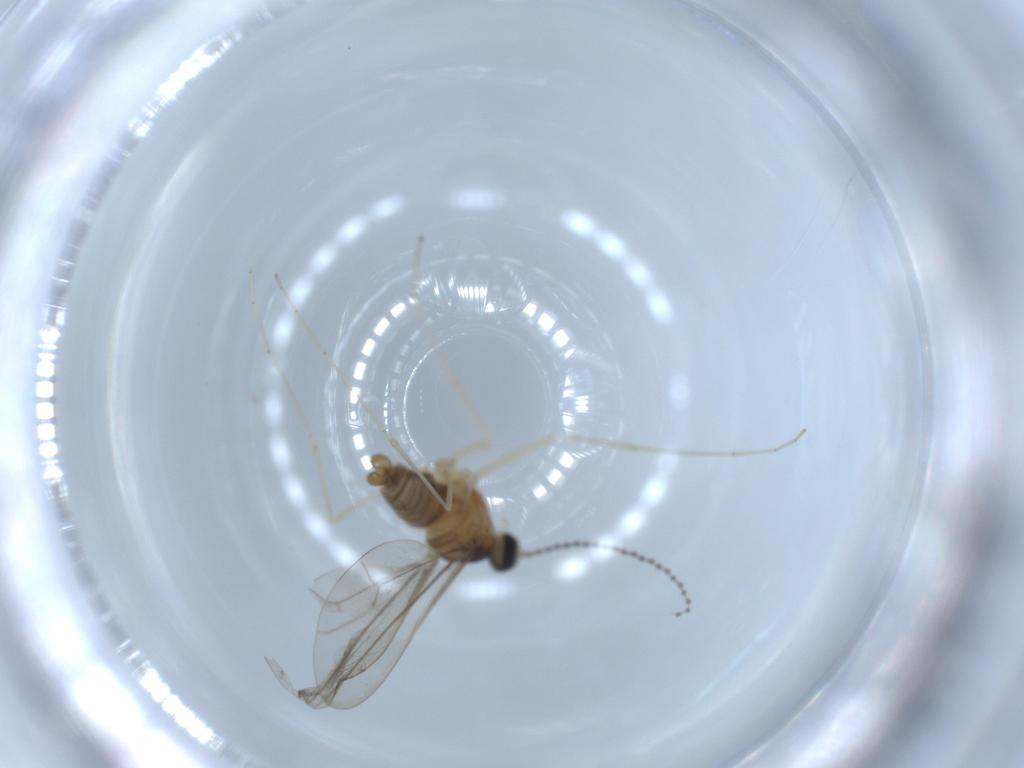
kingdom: Animalia
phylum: Arthropoda
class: Insecta
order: Diptera
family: Cecidomyiidae
